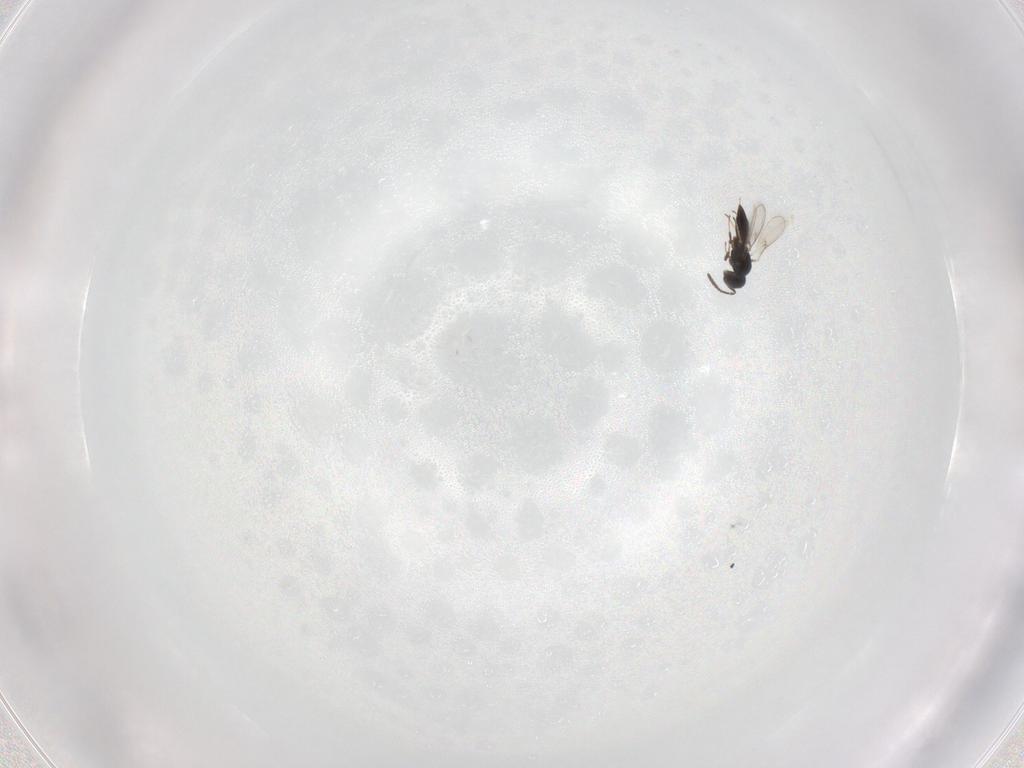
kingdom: Animalia
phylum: Arthropoda
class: Insecta
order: Hymenoptera
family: Scelionidae
